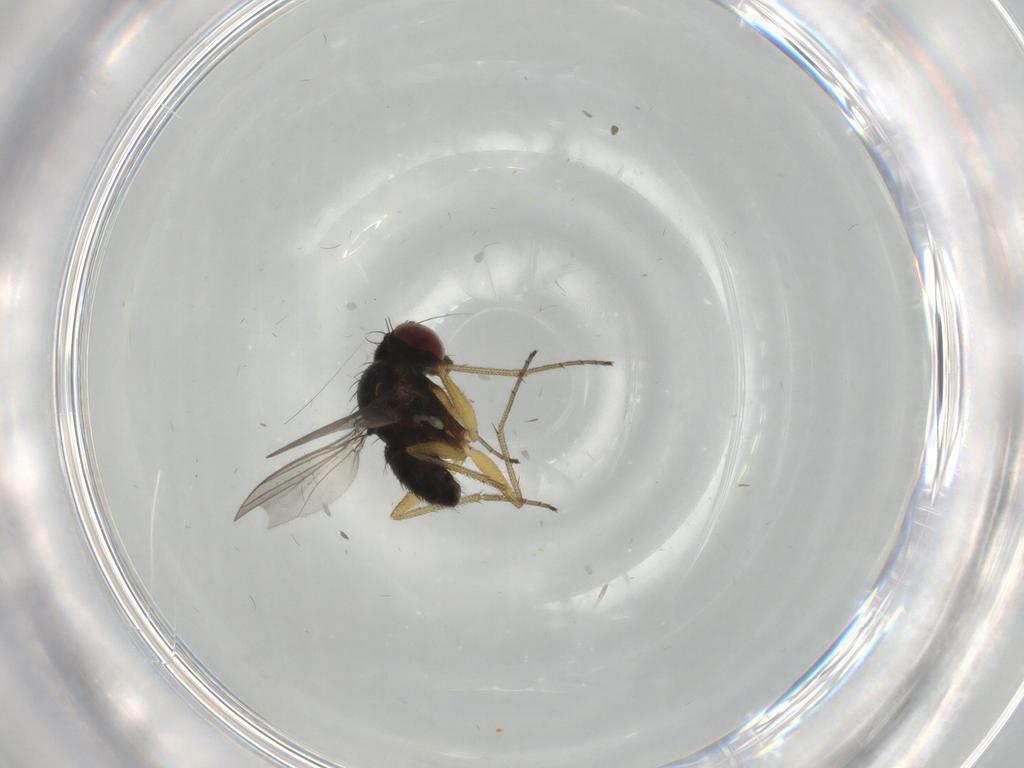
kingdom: Animalia
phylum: Arthropoda
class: Insecta
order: Diptera
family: Dolichopodidae
